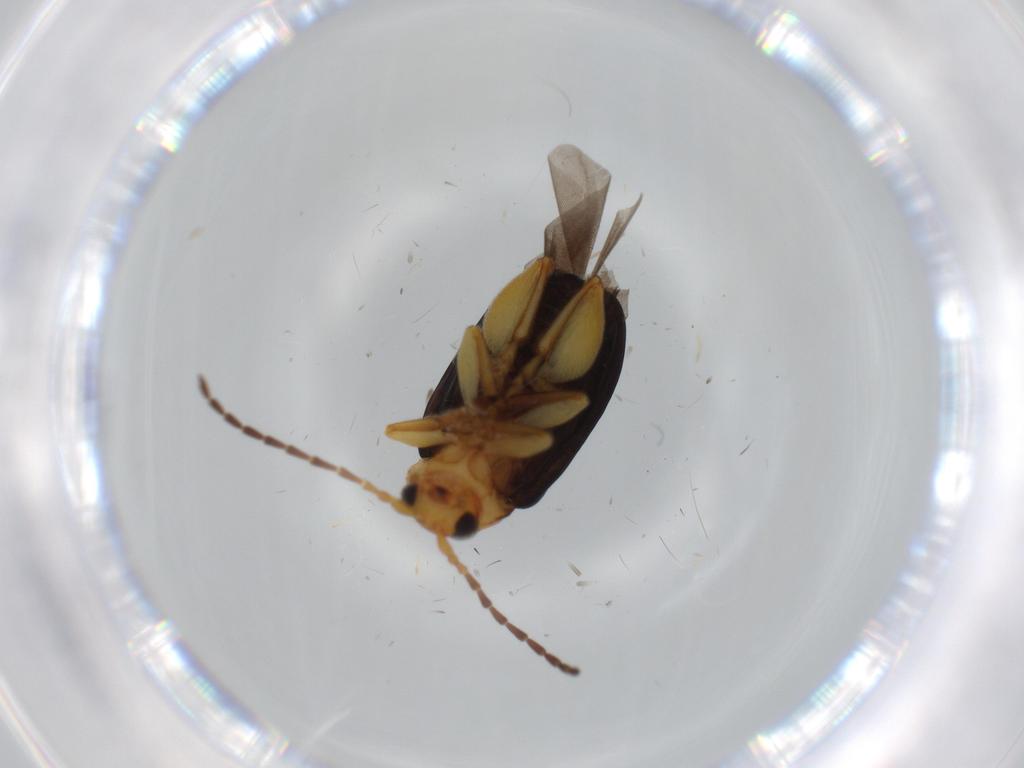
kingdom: Animalia
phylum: Arthropoda
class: Insecta
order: Coleoptera
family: Chrysomelidae
